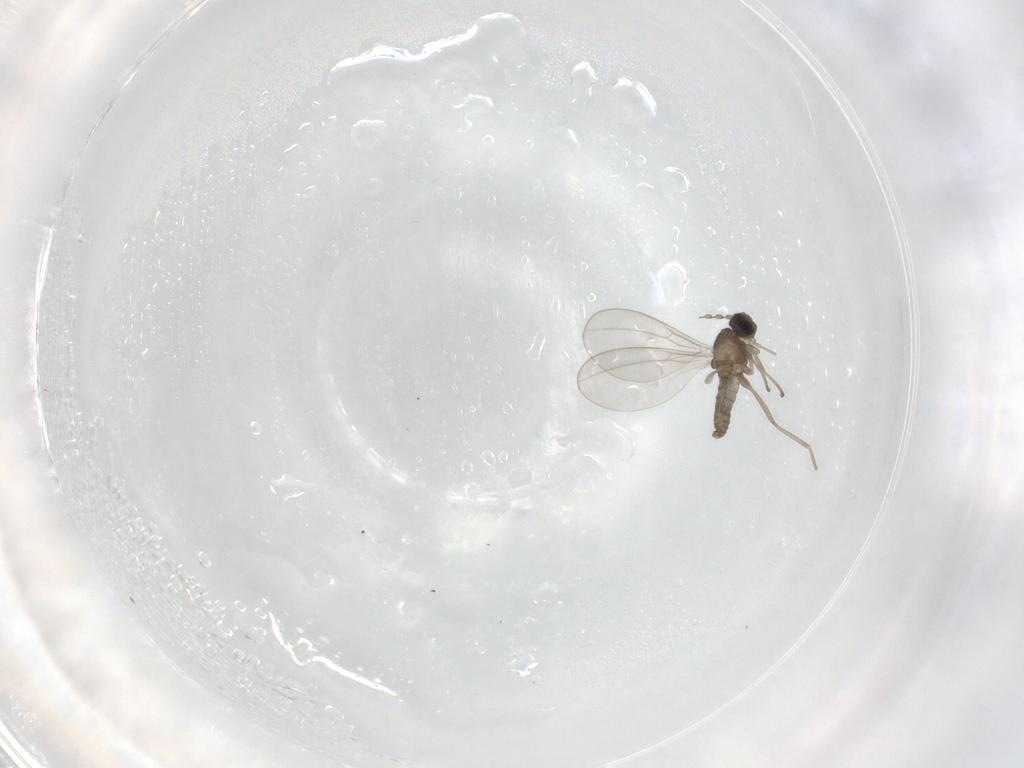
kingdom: Animalia
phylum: Arthropoda
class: Insecta
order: Diptera
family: Cecidomyiidae
